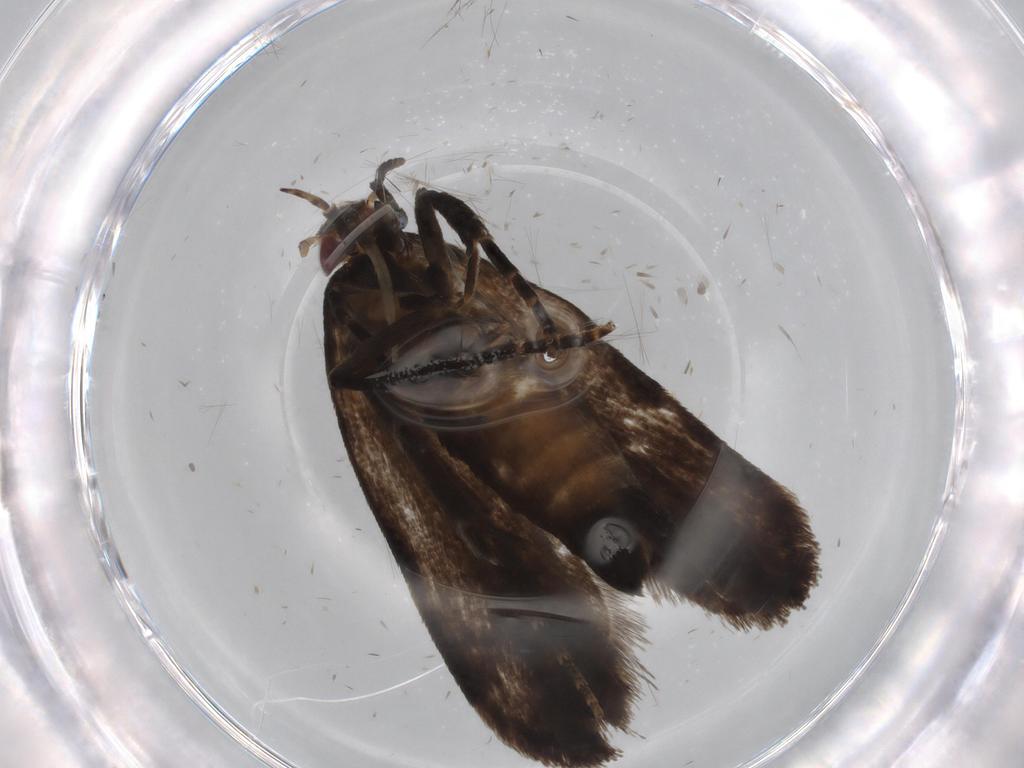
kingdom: Animalia
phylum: Arthropoda
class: Insecta
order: Lepidoptera
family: Gelechiidae
